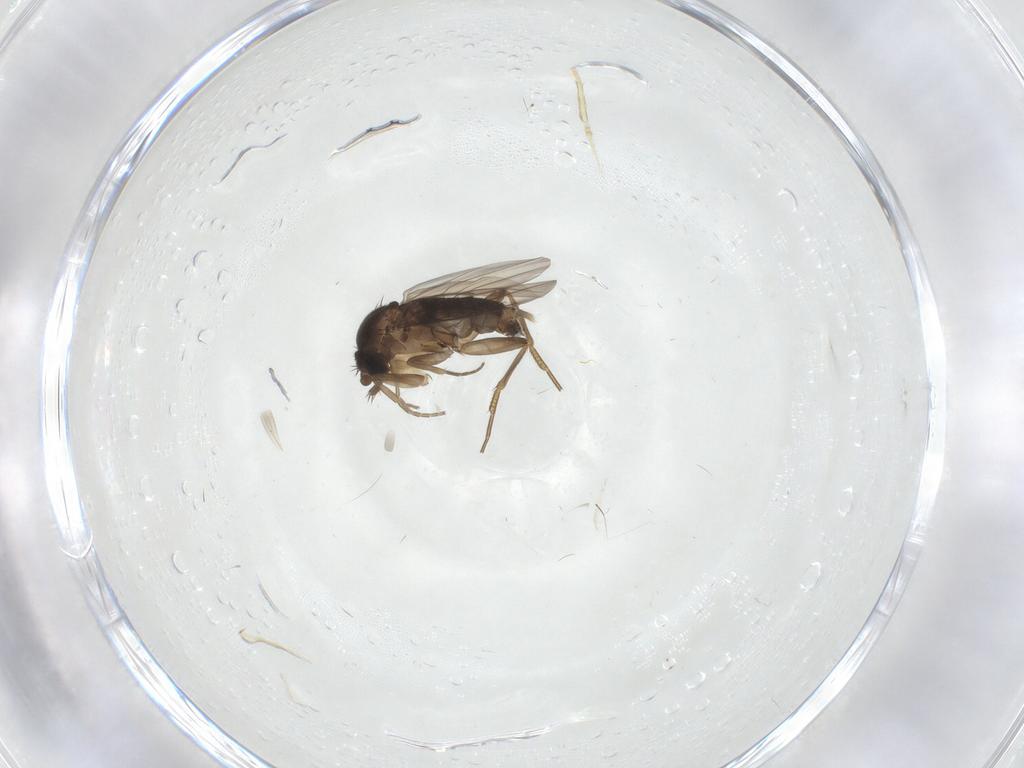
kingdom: Animalia
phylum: Arthropoda
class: Insecta
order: Diptera
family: Phoridae
